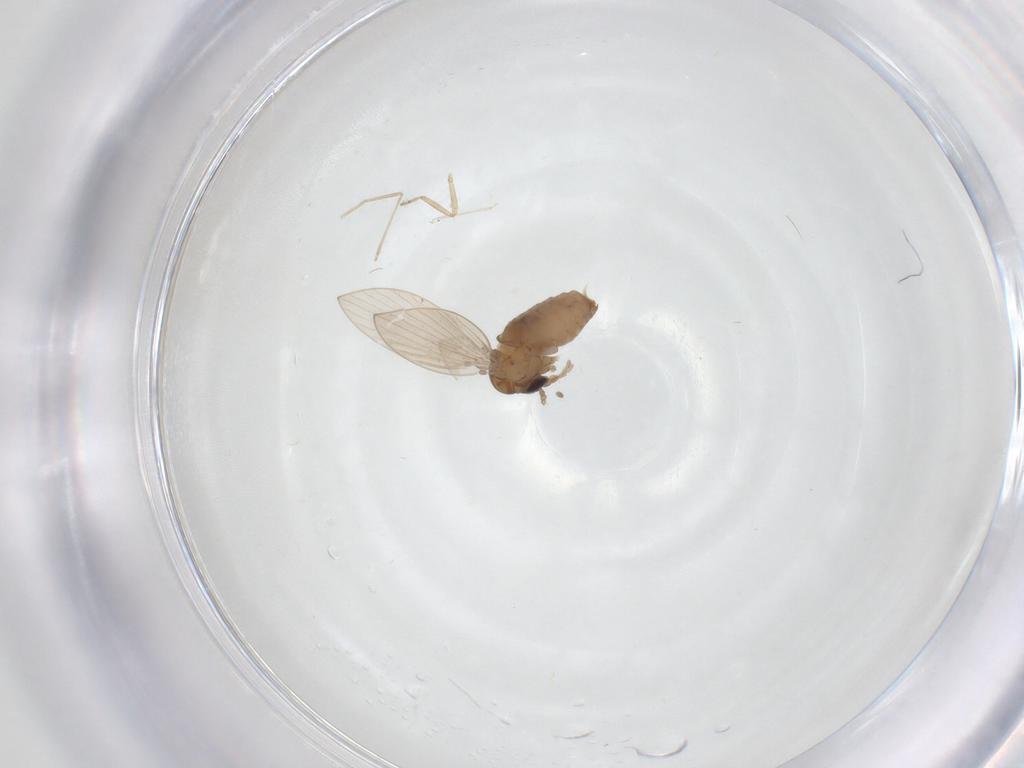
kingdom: Animalia
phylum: Arthropoda
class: Insecta
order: Diptera
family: Psychodidae
